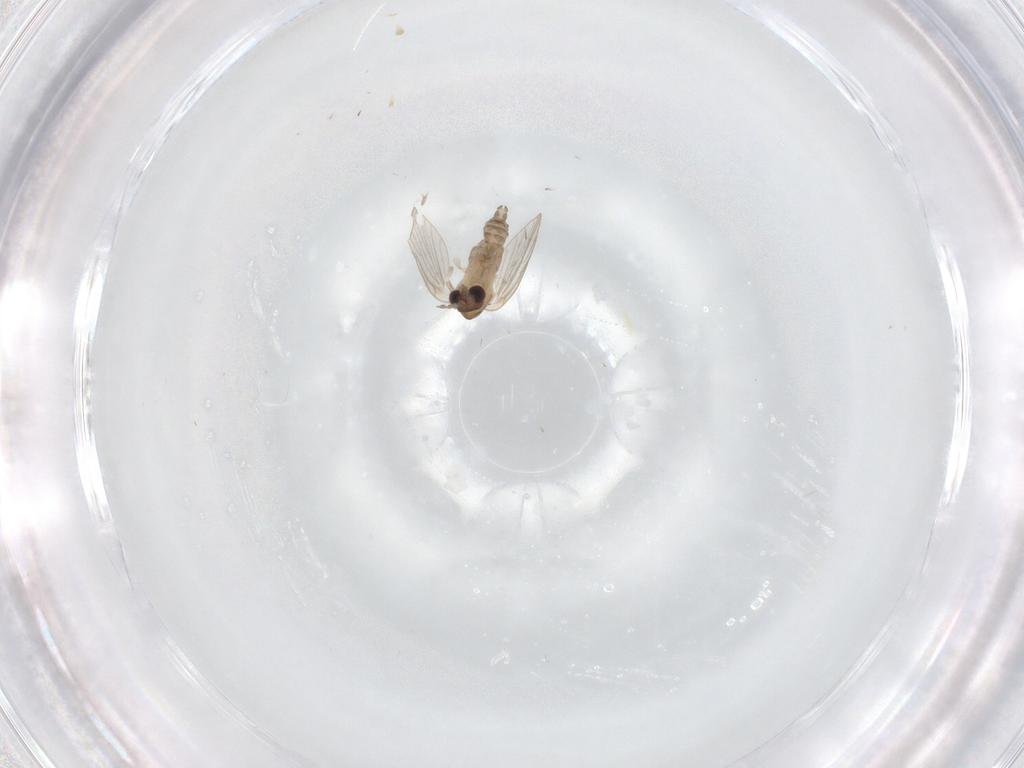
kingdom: Animalia
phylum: Arthropoda
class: Insecta
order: Diptera
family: Psychodidae
